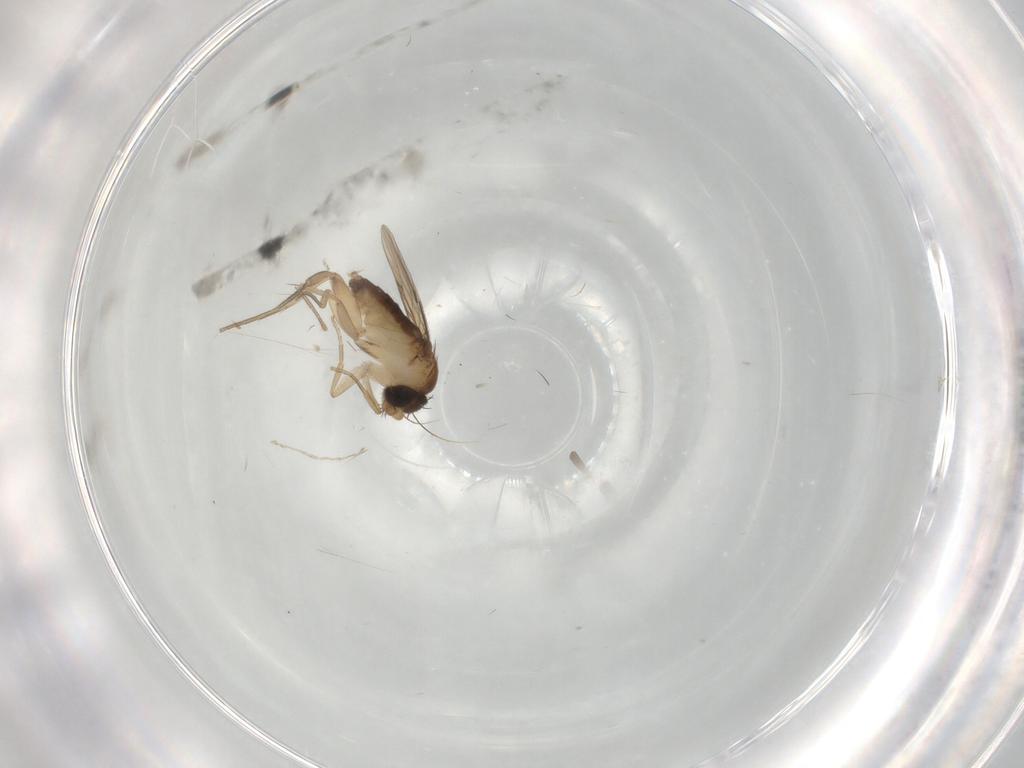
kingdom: Animalia
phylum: Arthropoda
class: Insecta
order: Diptera
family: Phoridae
